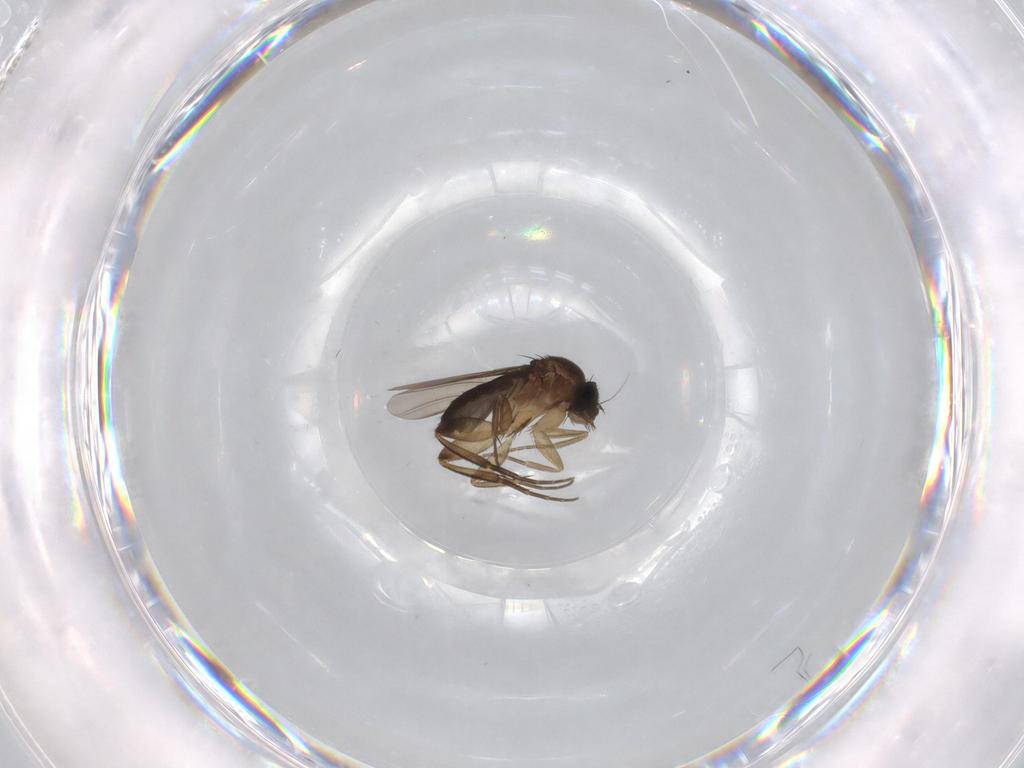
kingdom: Animalia
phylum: Arthropoda
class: Insecta
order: Diptera
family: Phoridae
